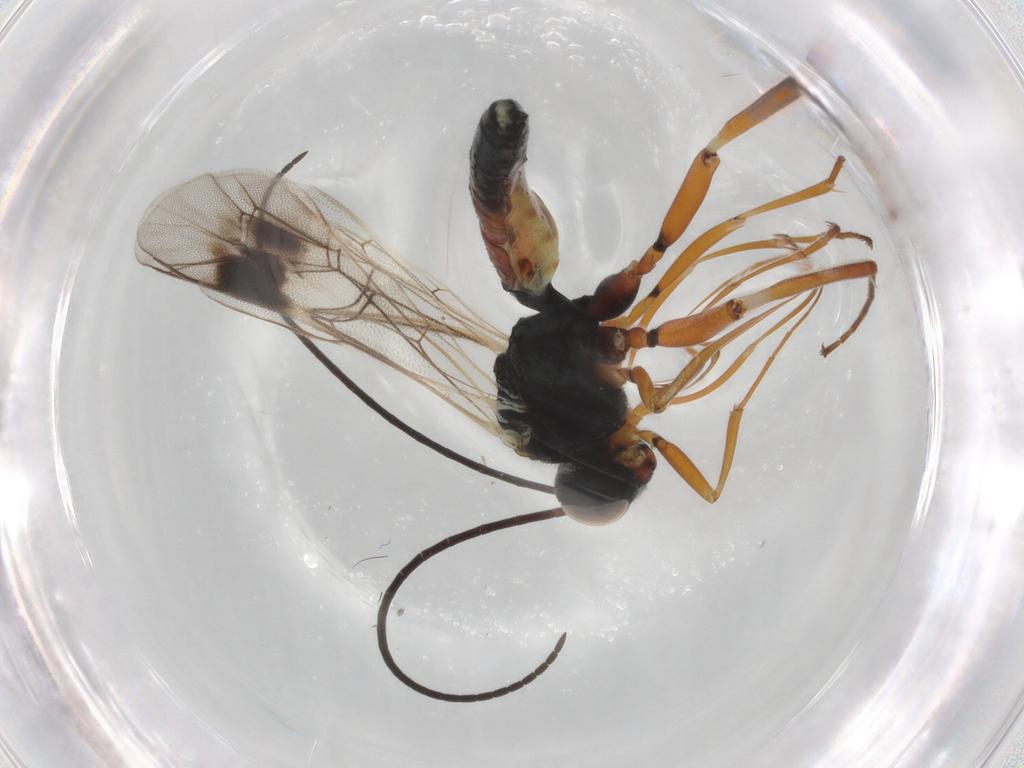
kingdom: Animalia
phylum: Arthropoda
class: Insecta
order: Hymenoptera
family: Ichneumonidae
